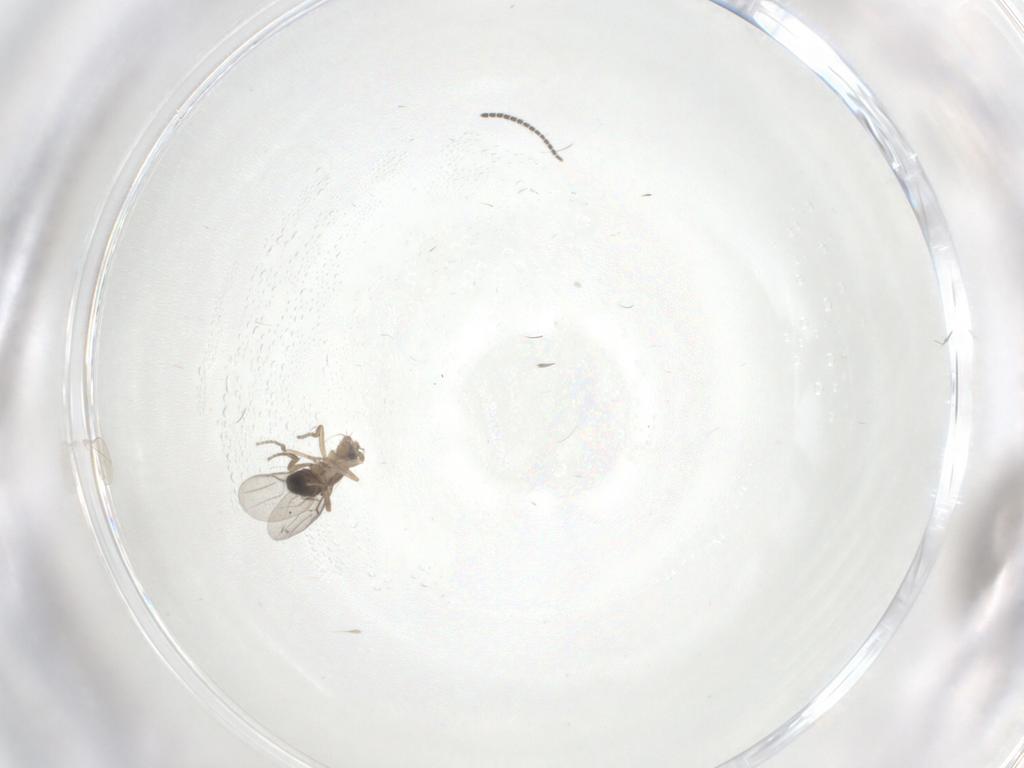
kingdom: Animalia
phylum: Arthropoda
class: Insecta
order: Diptera
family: Phoridae
